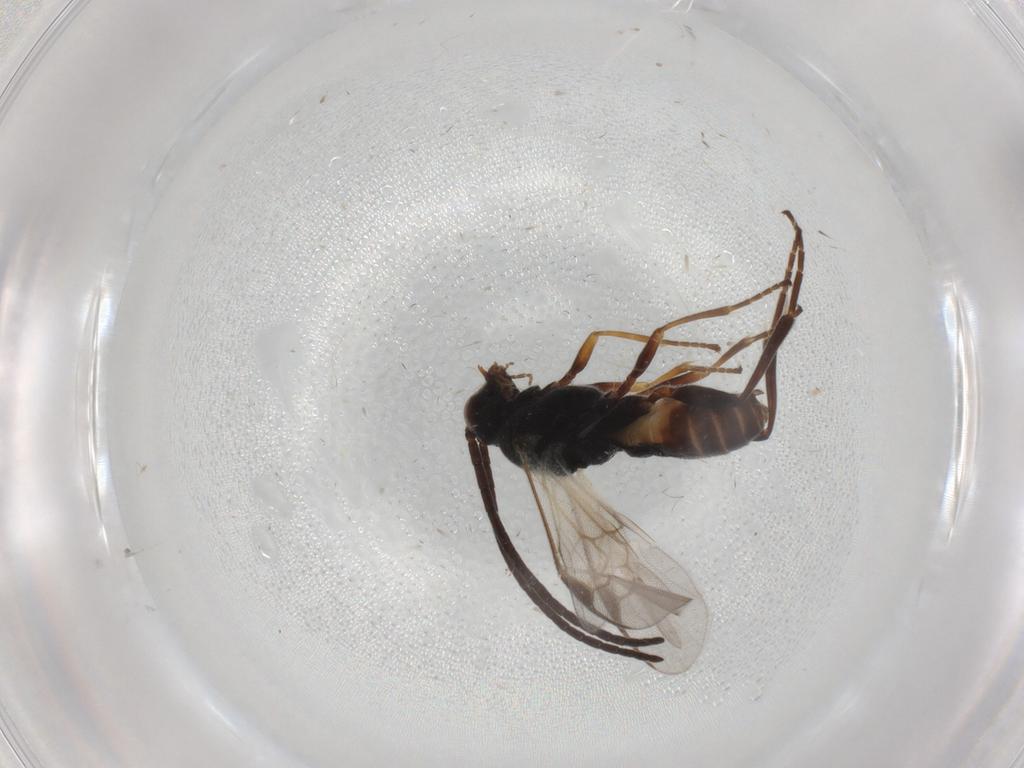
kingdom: Animalia
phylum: Arthropoda
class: Insecta
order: Hymenoptera
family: Braconidae
